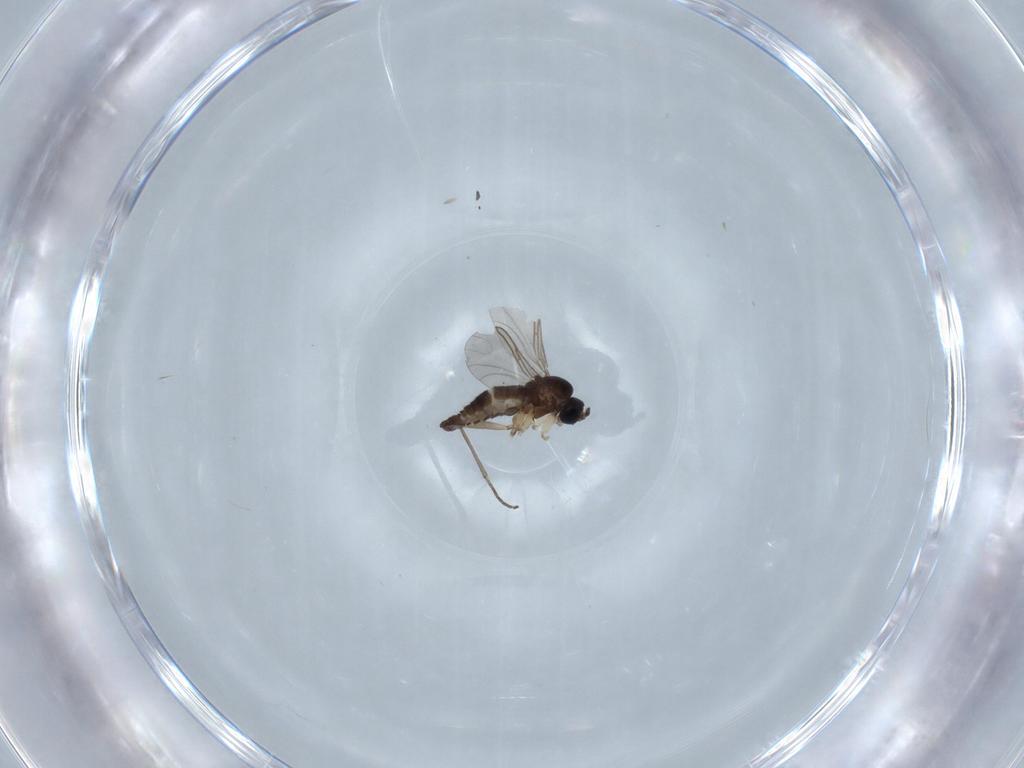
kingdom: Animalia
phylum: Arthropoda
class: Insecta
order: Diptera
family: Sciaridae
